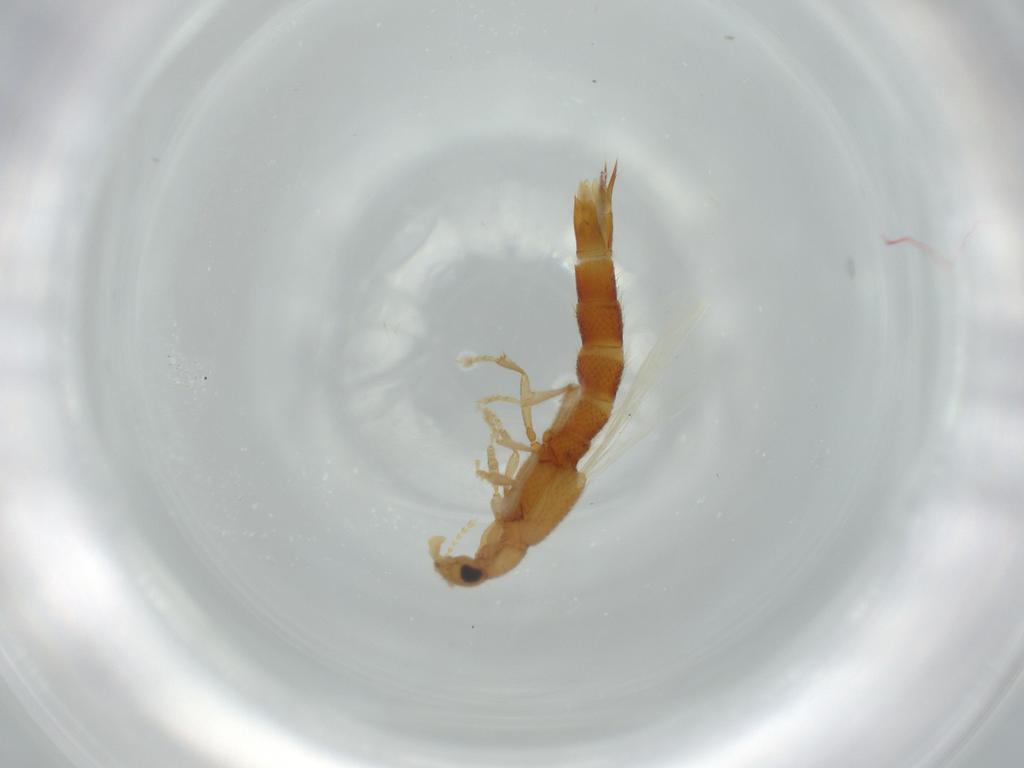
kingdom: Animalia
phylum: Arthropoda
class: Insecta
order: Coleoptera
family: Staphylinidae
